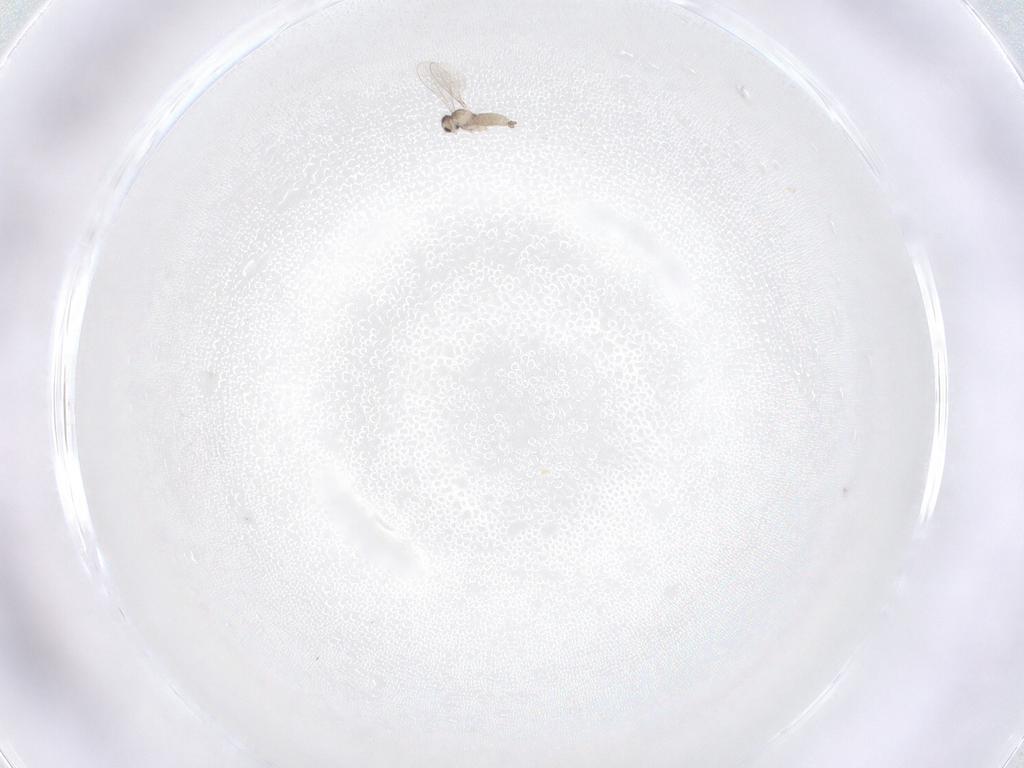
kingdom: Animalia
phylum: Arthropoda
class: Insecta
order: Diptera
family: Cecidomyiidae
